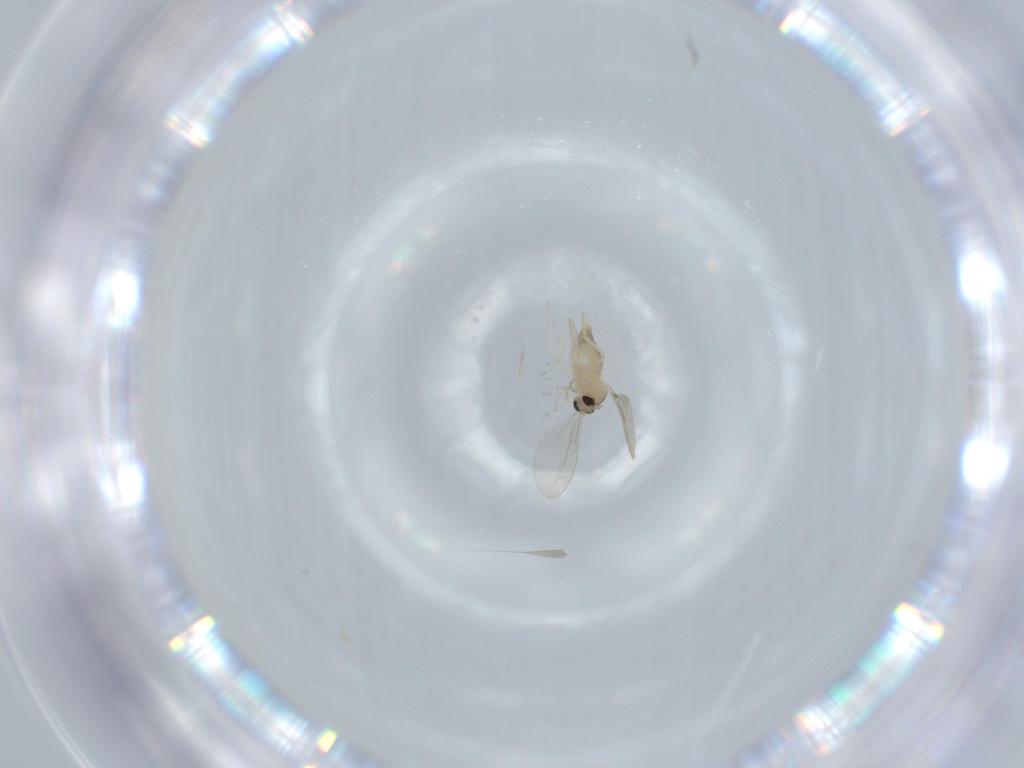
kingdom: Animalia
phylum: Arthropoda
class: Insecta
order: Diptera
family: Cecidomyiidae
